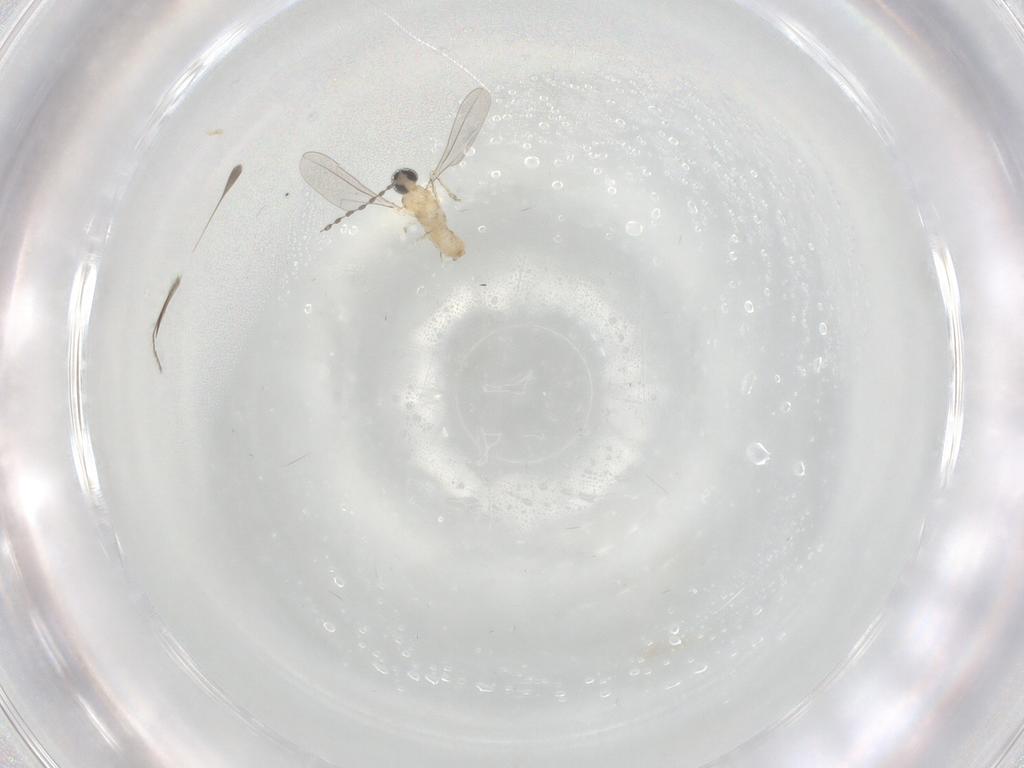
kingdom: Animalia
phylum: Arthropoda
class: Insecta
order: Diptera
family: Cecidomyiidae
